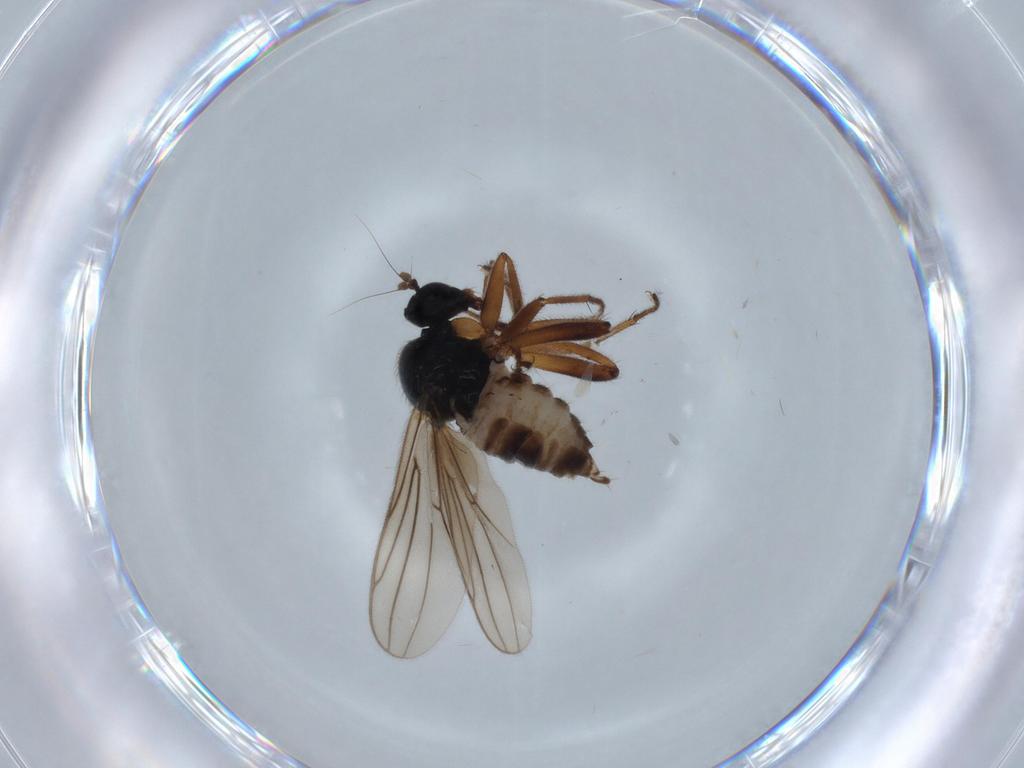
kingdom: Animalia
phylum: Arthropoda
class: Insecta
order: Diptera
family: Hybotidae
